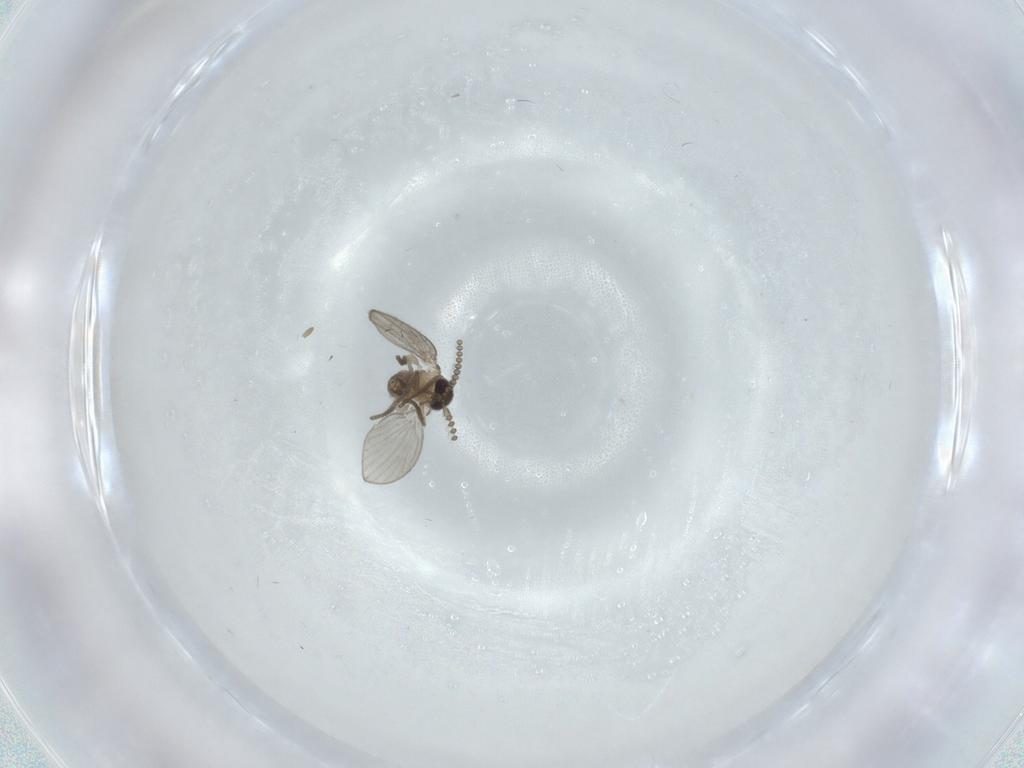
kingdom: Animalia
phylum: Arthropoda
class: Insecta
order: Diptera
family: Psychodidae
